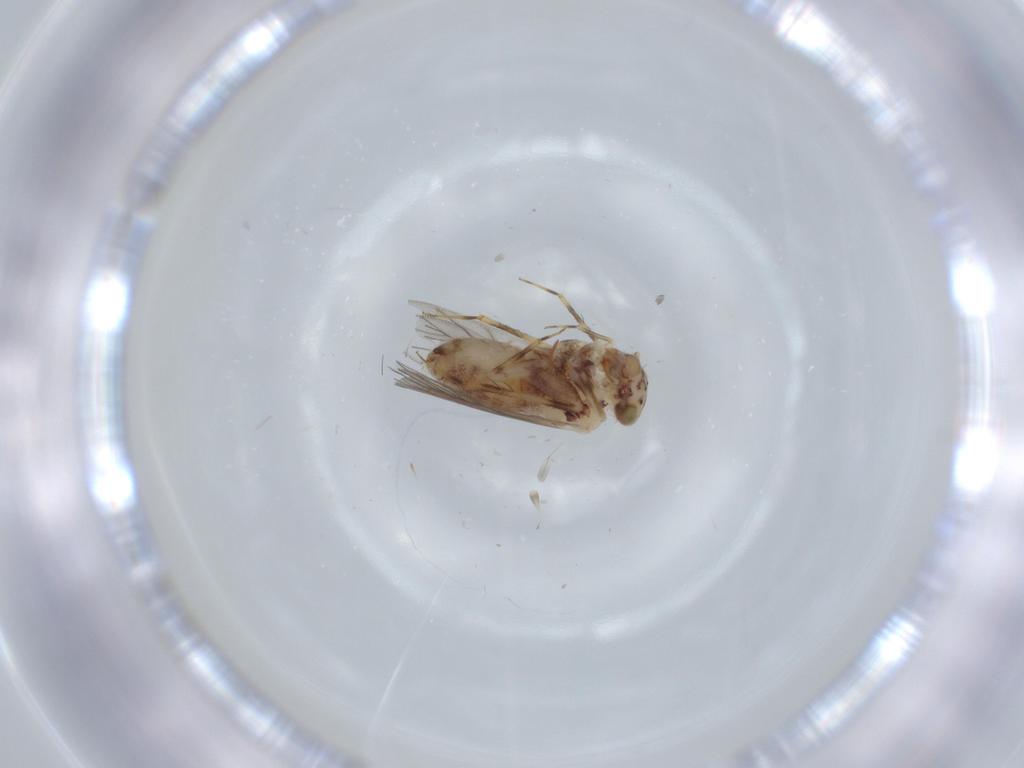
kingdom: Animalia
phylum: Arthropoda
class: Insecta
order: Psocodea
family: Lepidopsocidae
